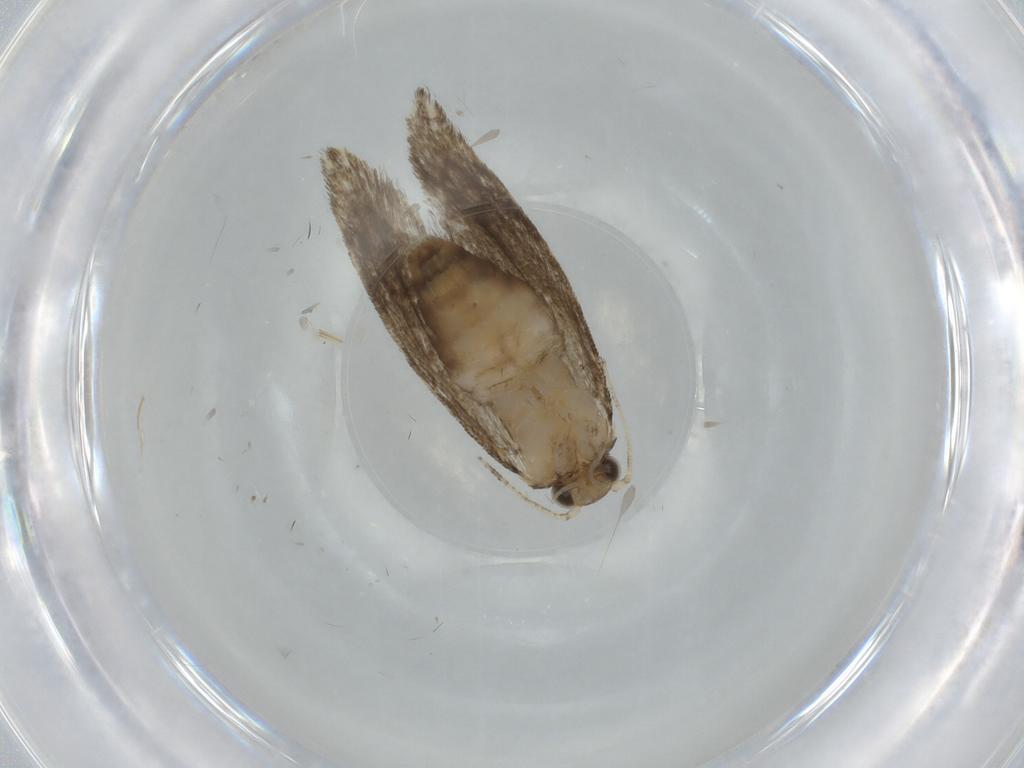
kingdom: Animalia
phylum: Arthropoda
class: Insecta
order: Lepidoptera
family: Tineidae
